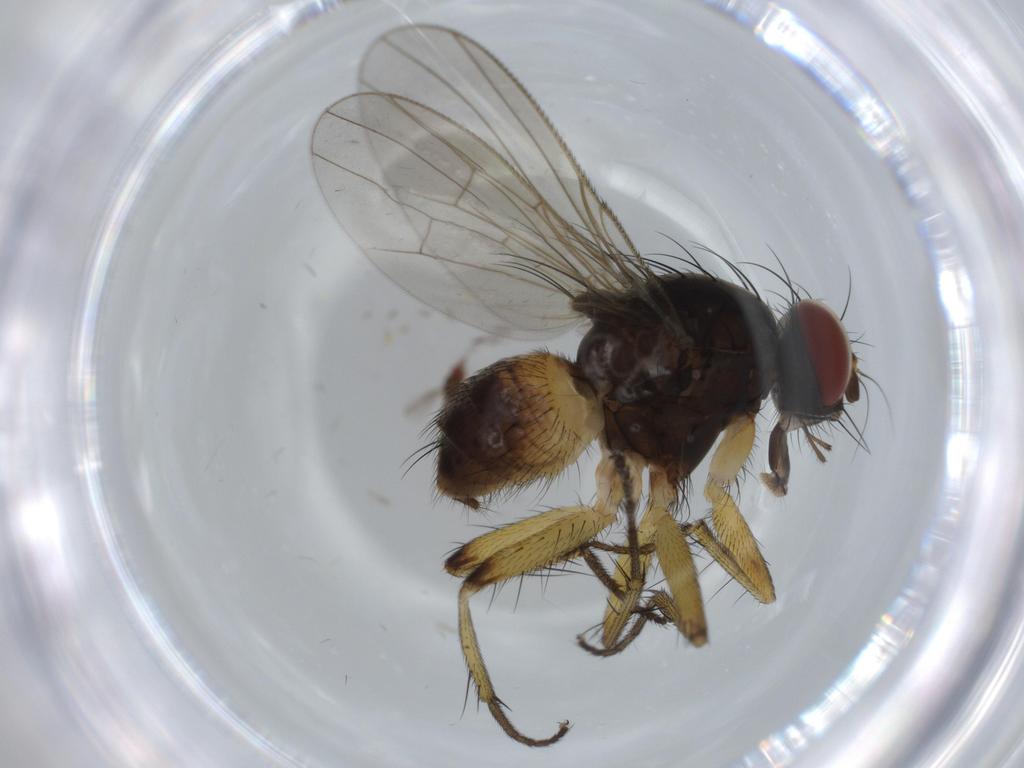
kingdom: Animalia
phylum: Arthropoda
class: Insecta
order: Diptera
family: Muscidae
